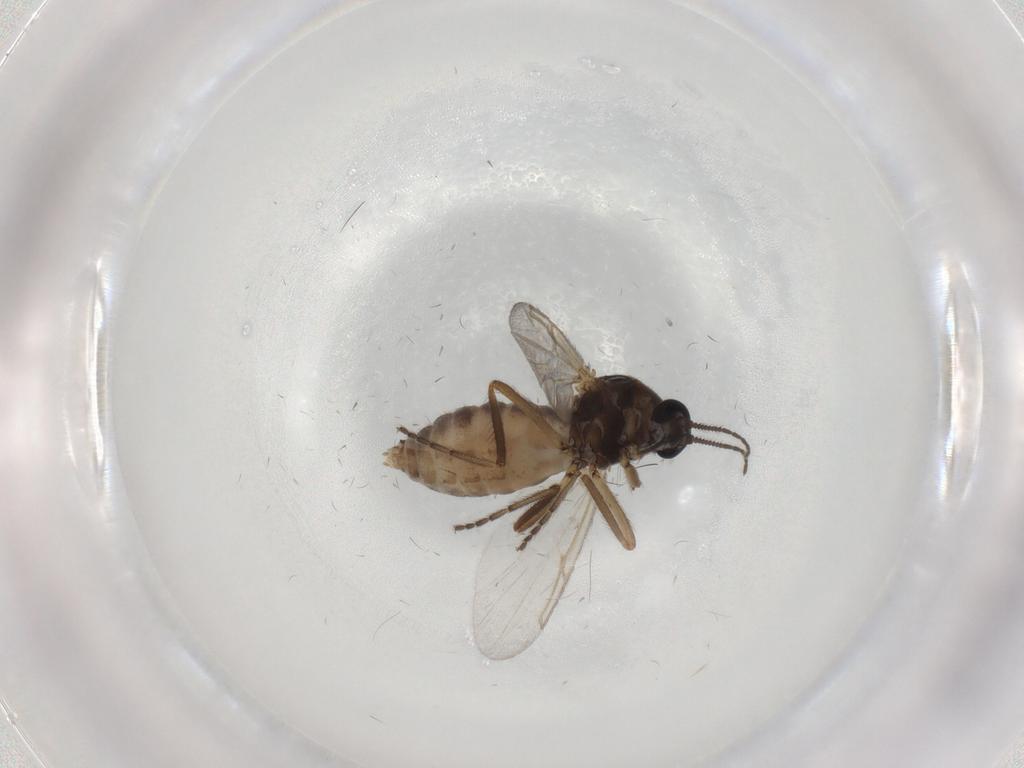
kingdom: Animalia
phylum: Arthropoda
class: Insecta
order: Diptera
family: Ceratopogonidae
